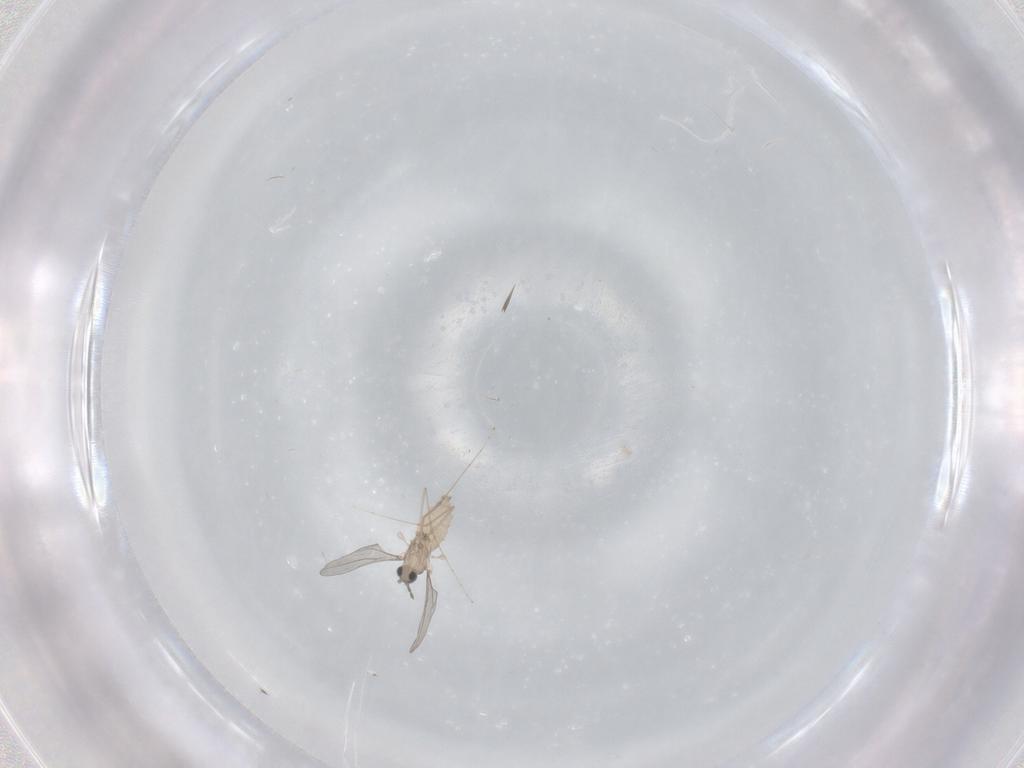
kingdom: Animalia
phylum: Arthropoda
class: Insecta
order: Diptera
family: Cecidomyiidae
